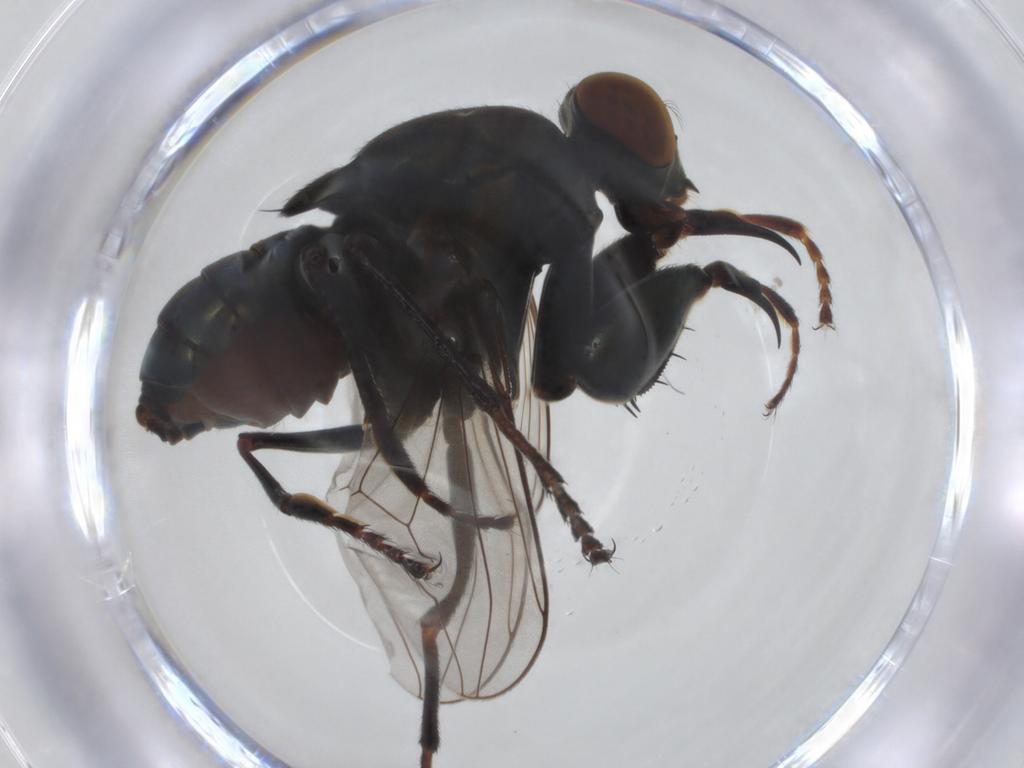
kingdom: Animalia
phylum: Arthropoda
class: Insecta
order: Diptera
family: Ephydridae
